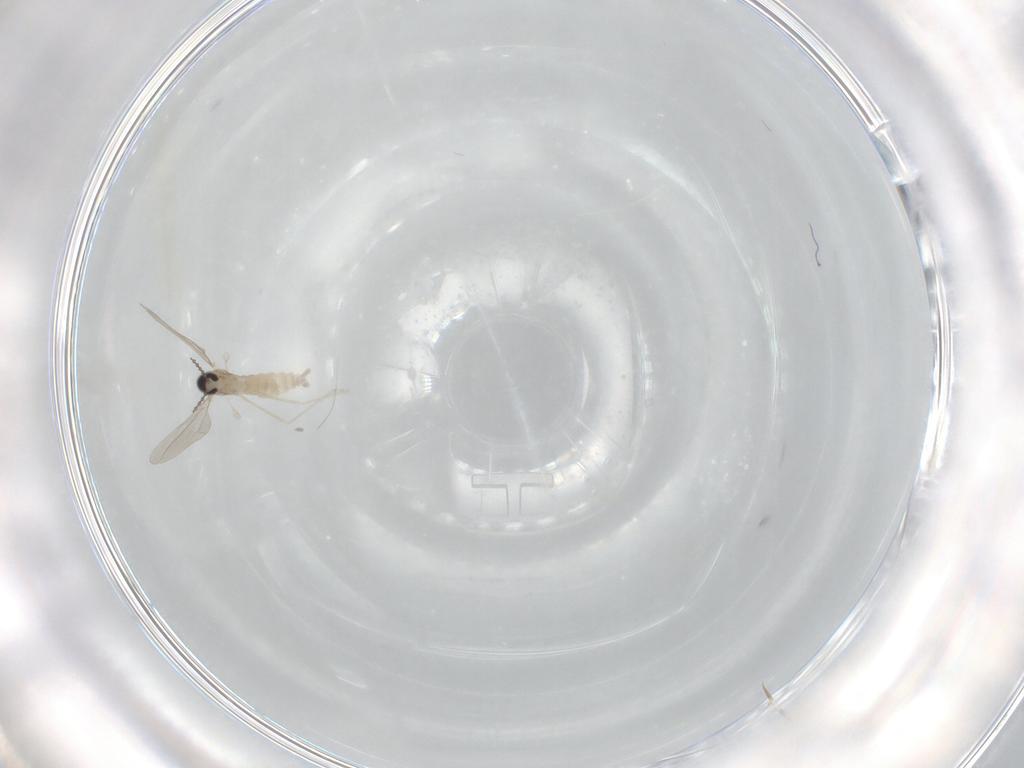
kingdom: Animalia
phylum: Arthropoda
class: Insecta
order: Diptera
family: Cecidomyiidae
